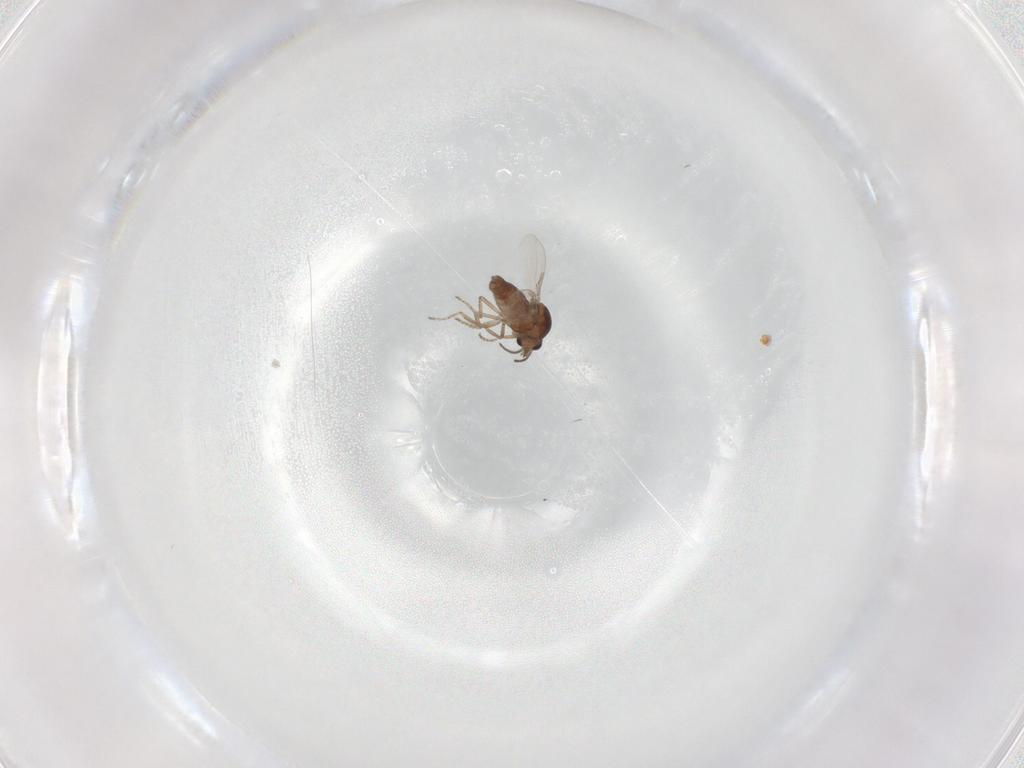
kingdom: Animalia
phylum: Arthropoda
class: Insecta
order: Diptera
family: Ceratopogonidae
